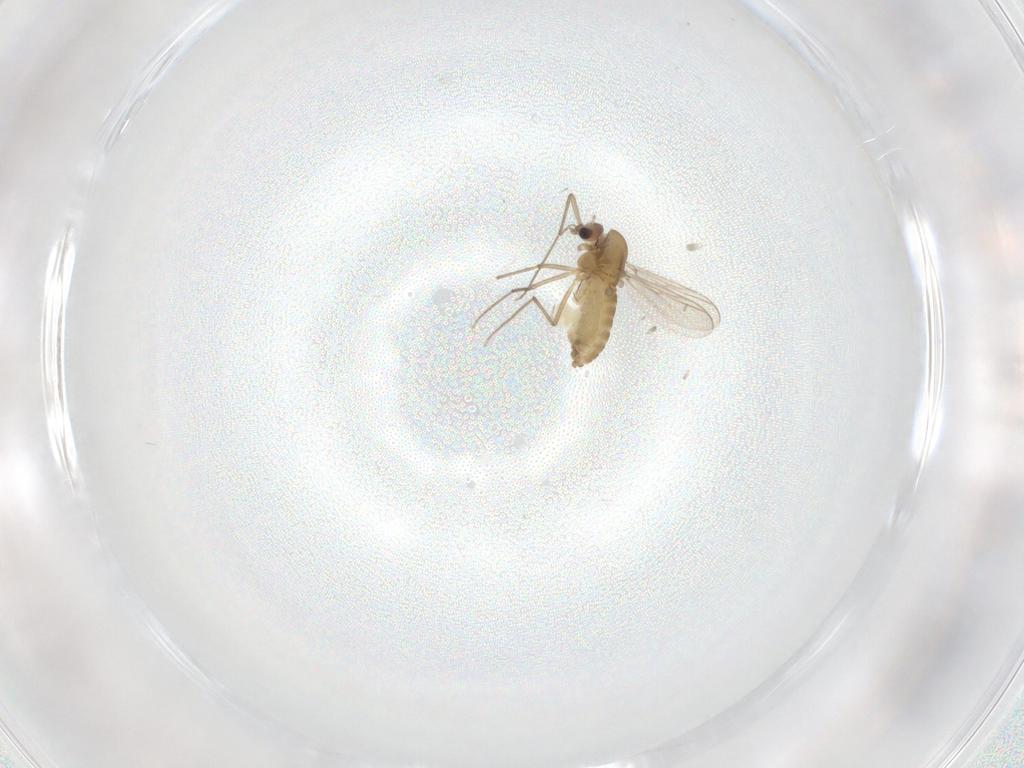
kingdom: Animalia
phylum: Arthropoda
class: Insecta
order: Diptera
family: Chironomidae
